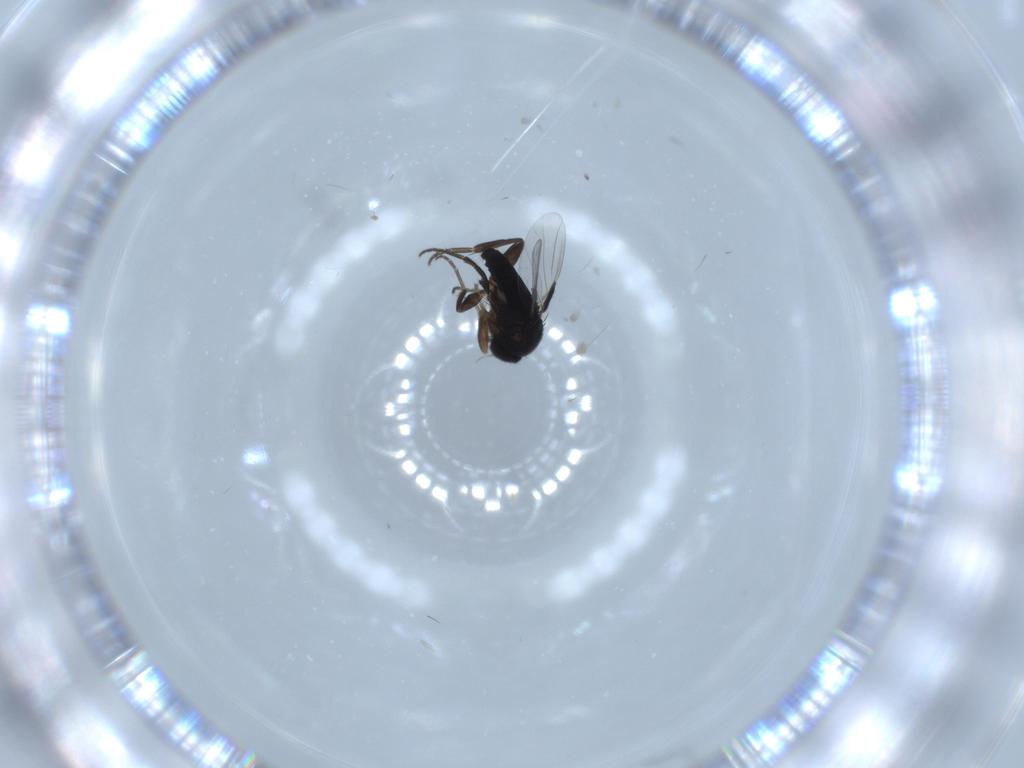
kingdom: Animalia
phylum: Arthropoda
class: Insecta
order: Diptera
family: Phoridae
